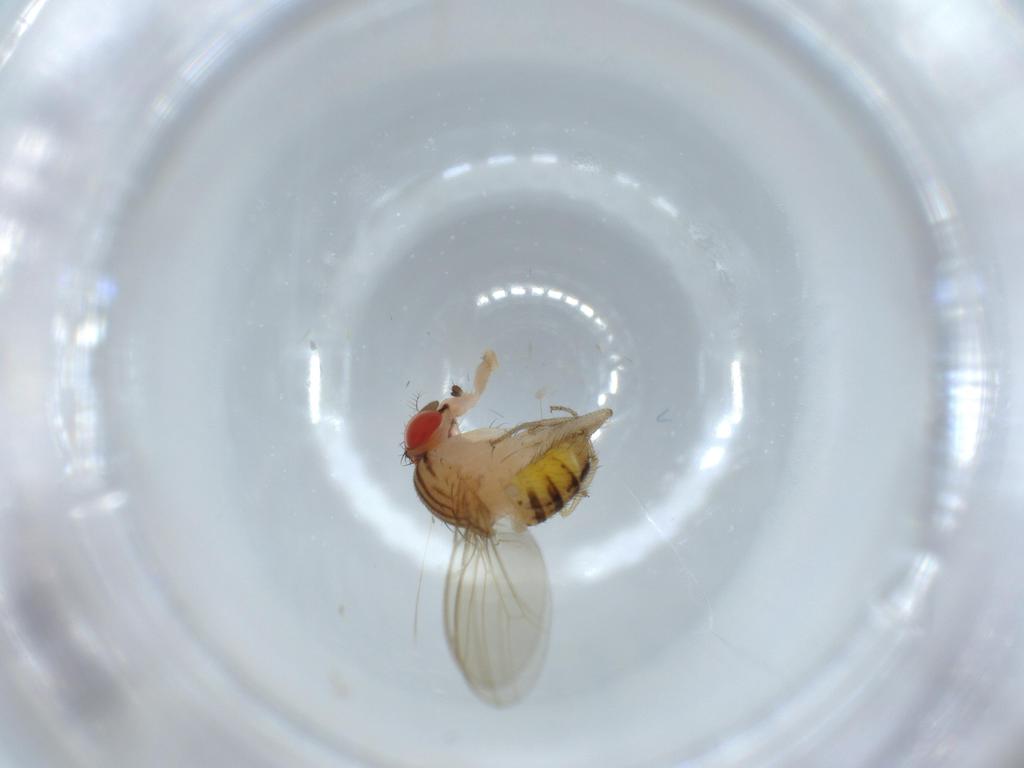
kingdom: Animalia
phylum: Arthropoda
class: Insecta
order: Diptera
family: Drosophilidae
